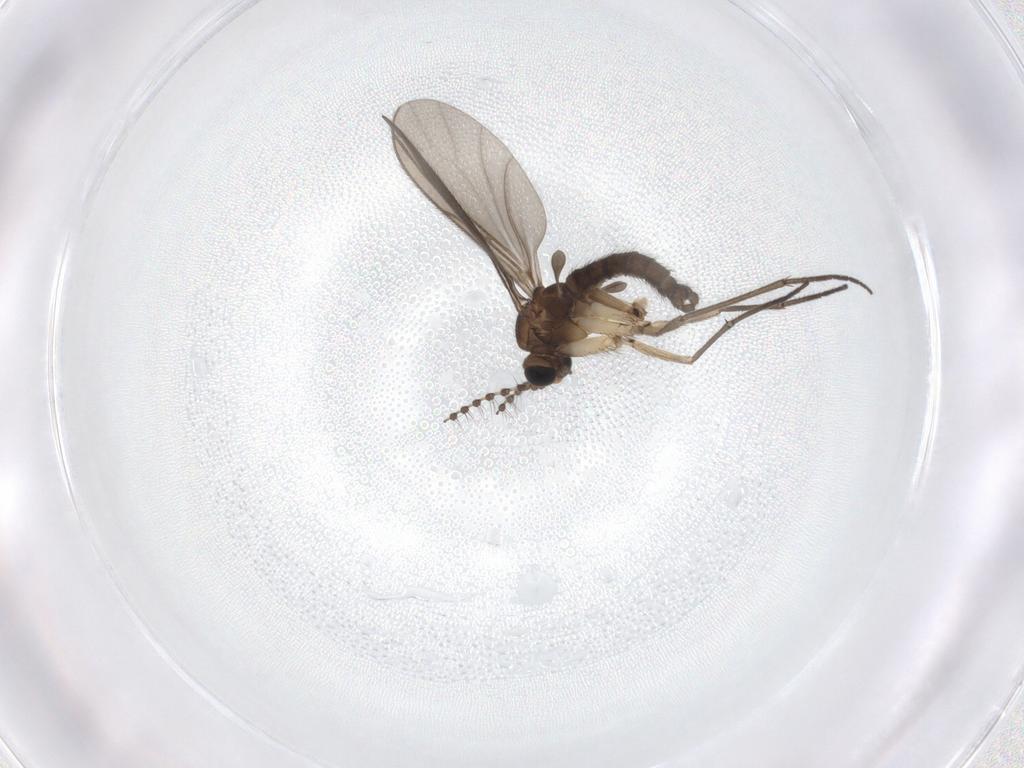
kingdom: Animalia
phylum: Arthropoda
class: Insecta
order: Diptera
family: Sciaridae
